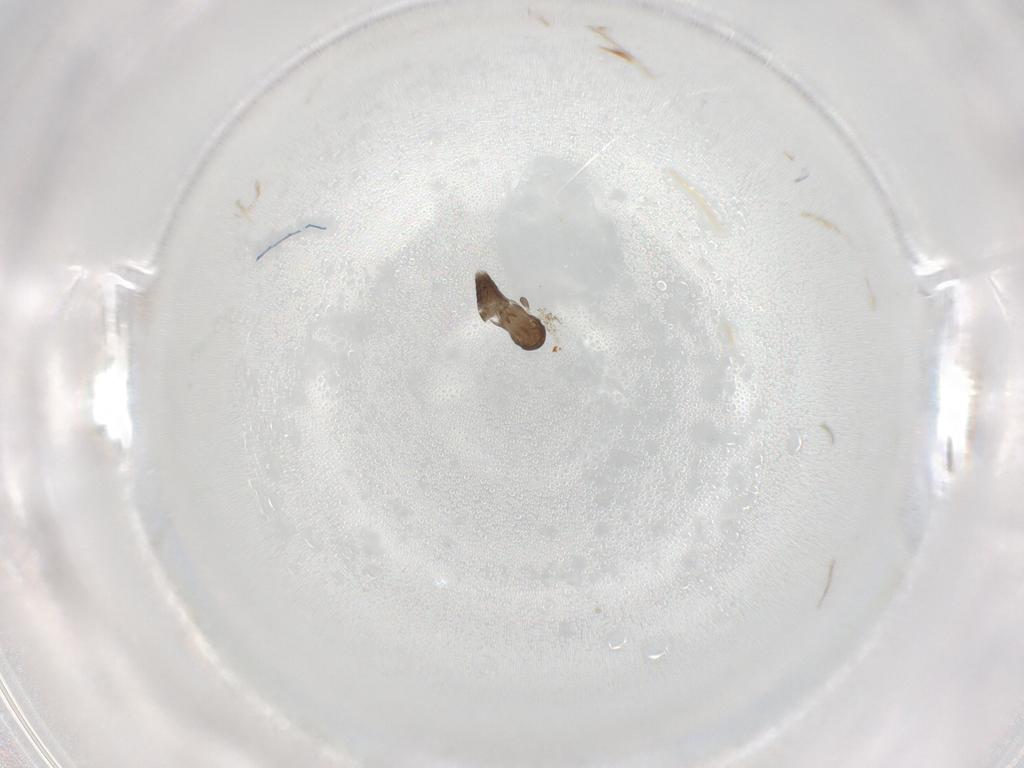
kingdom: Animalia
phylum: Arthropoda
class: Insecta
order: Diptera
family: Phoridae
